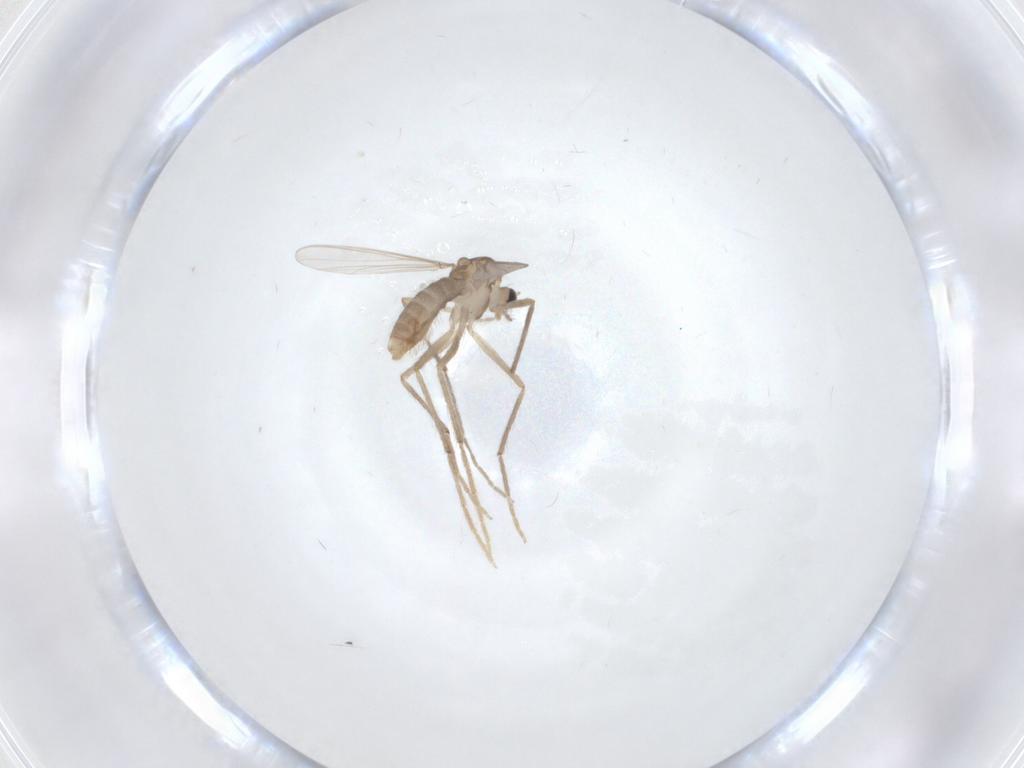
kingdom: Animalia
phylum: Arthropoda
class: Insecta
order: Diptera
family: Chironomidae
